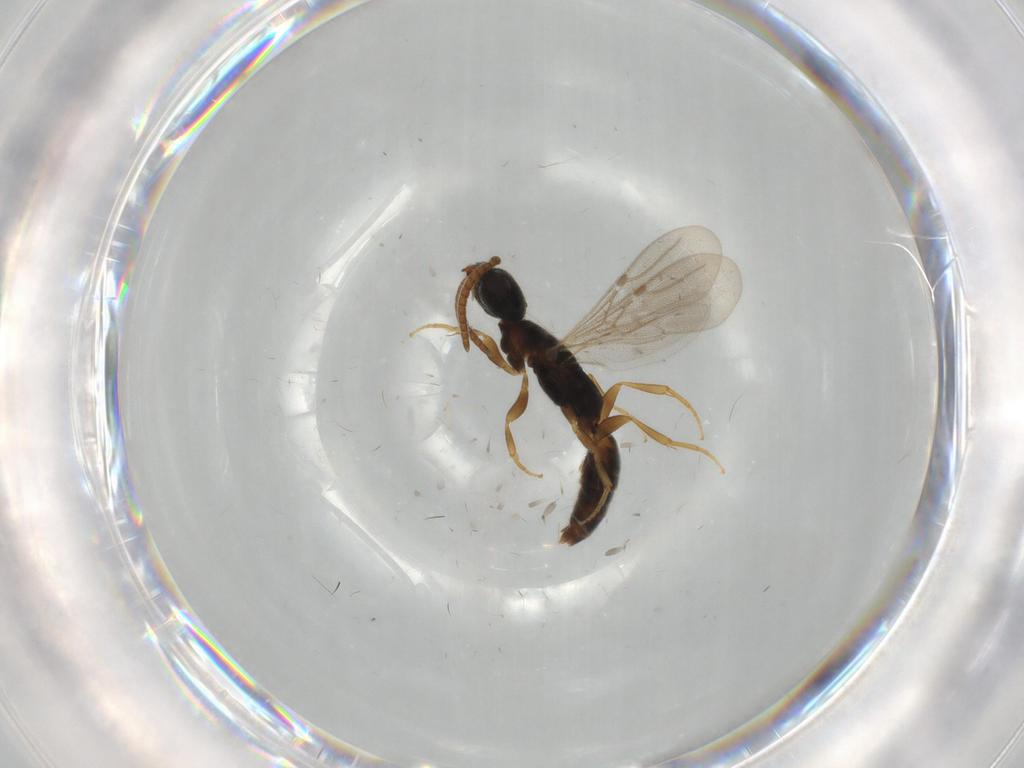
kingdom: Animalia
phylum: Arthropoda
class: Insecta
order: Hymenoptera
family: Bethylidae
